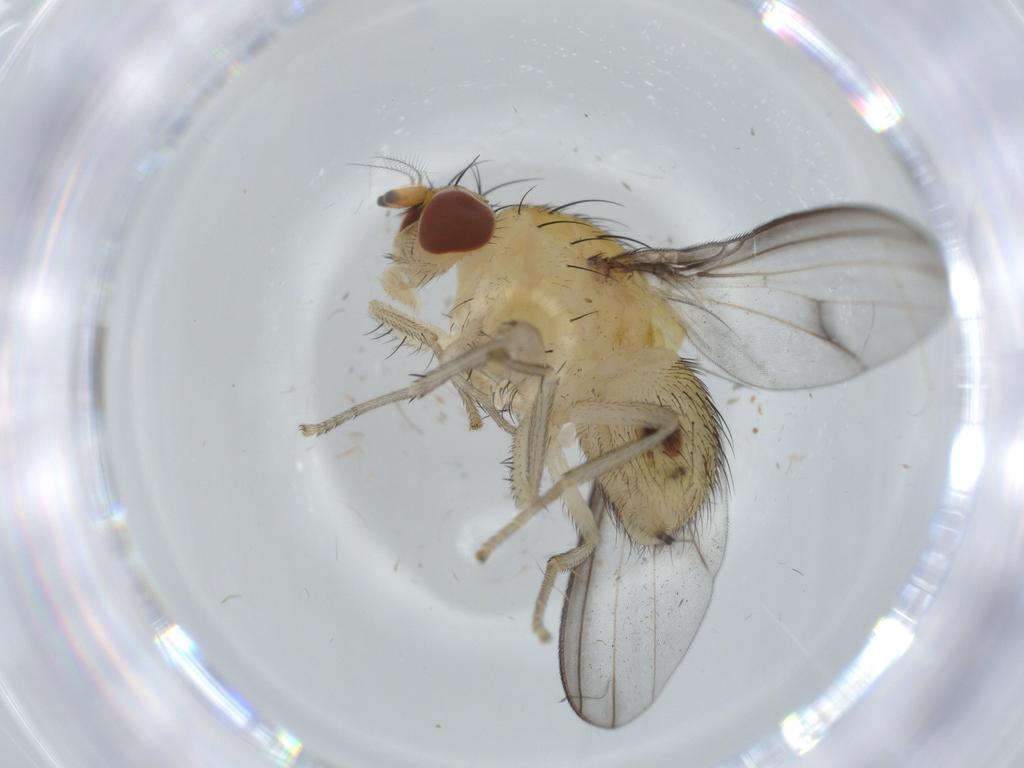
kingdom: Animalia
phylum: Arthropoda
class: Insecta
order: Diptera
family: Lauxaniidae
